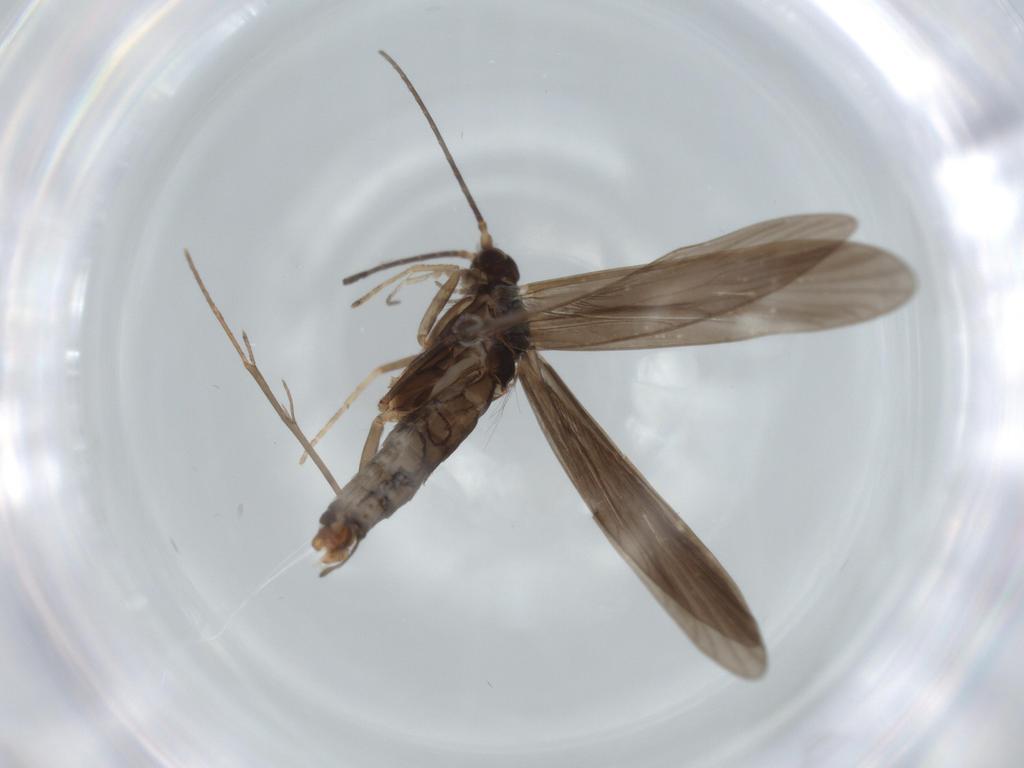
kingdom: Animalia
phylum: Arthropoda
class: Insecta
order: Trichoptera
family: Xiphocentronidae
